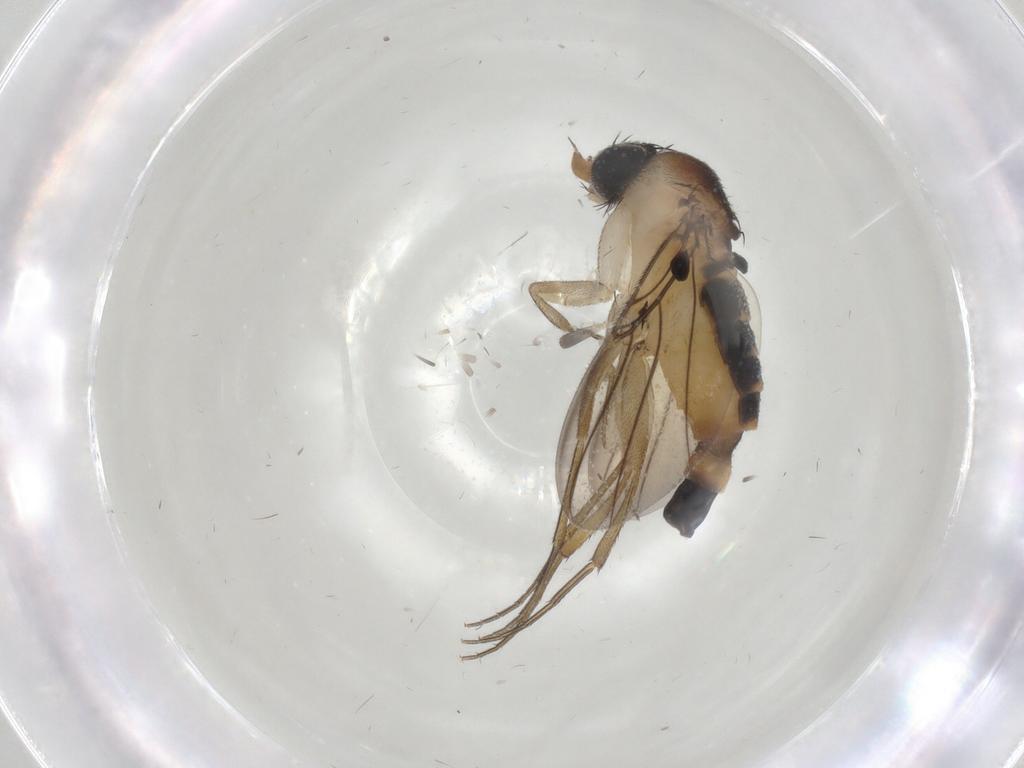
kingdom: Animalia
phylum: Arthropoda
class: Insecta
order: Diptera
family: Phoridae
